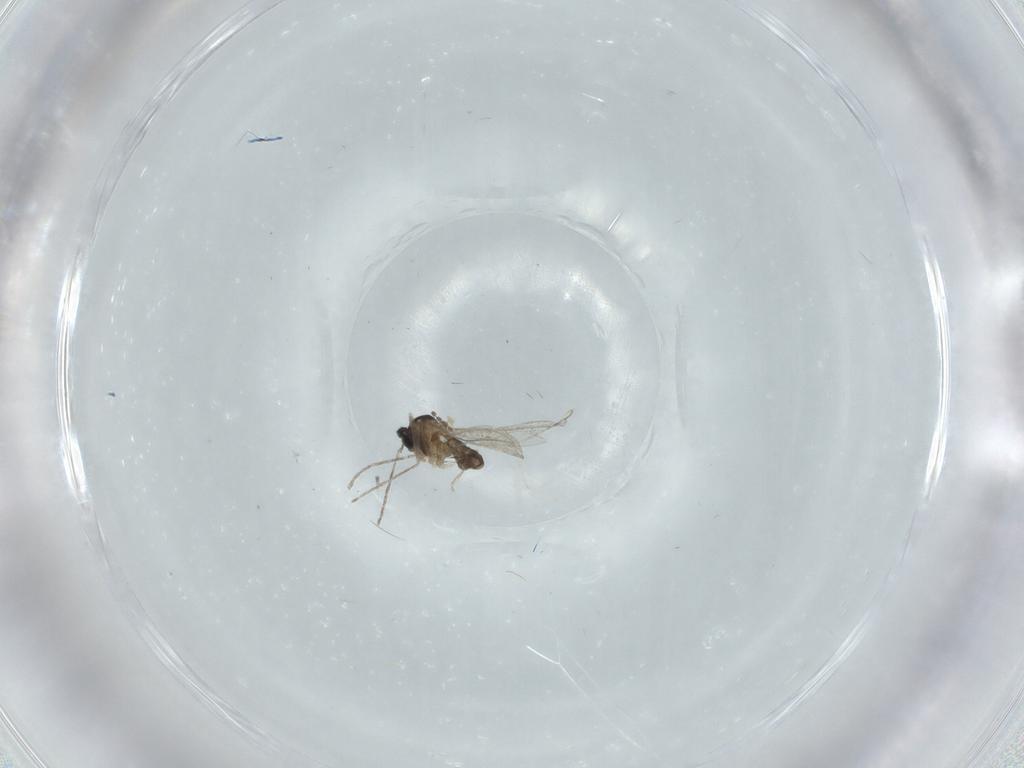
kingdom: Animalia
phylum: Arthropoda
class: Insecta
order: Diptera
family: Cecidomyiidae
